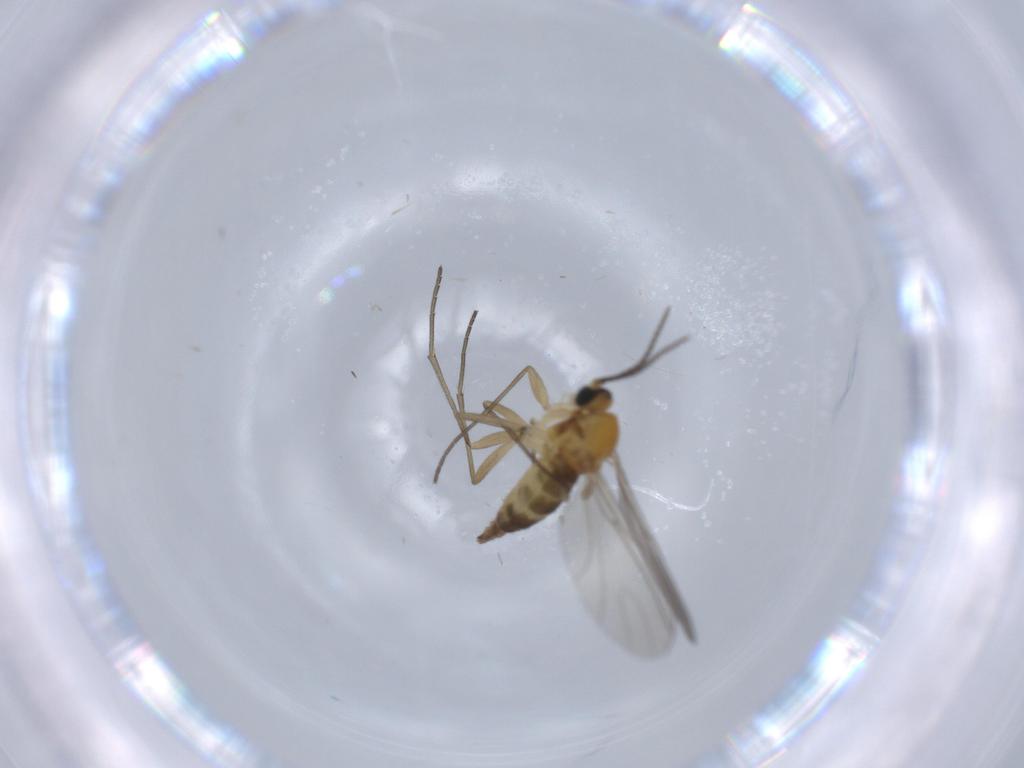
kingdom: Animalia
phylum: Arthropoda
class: Insecta
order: Diptera
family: Sciaridae
